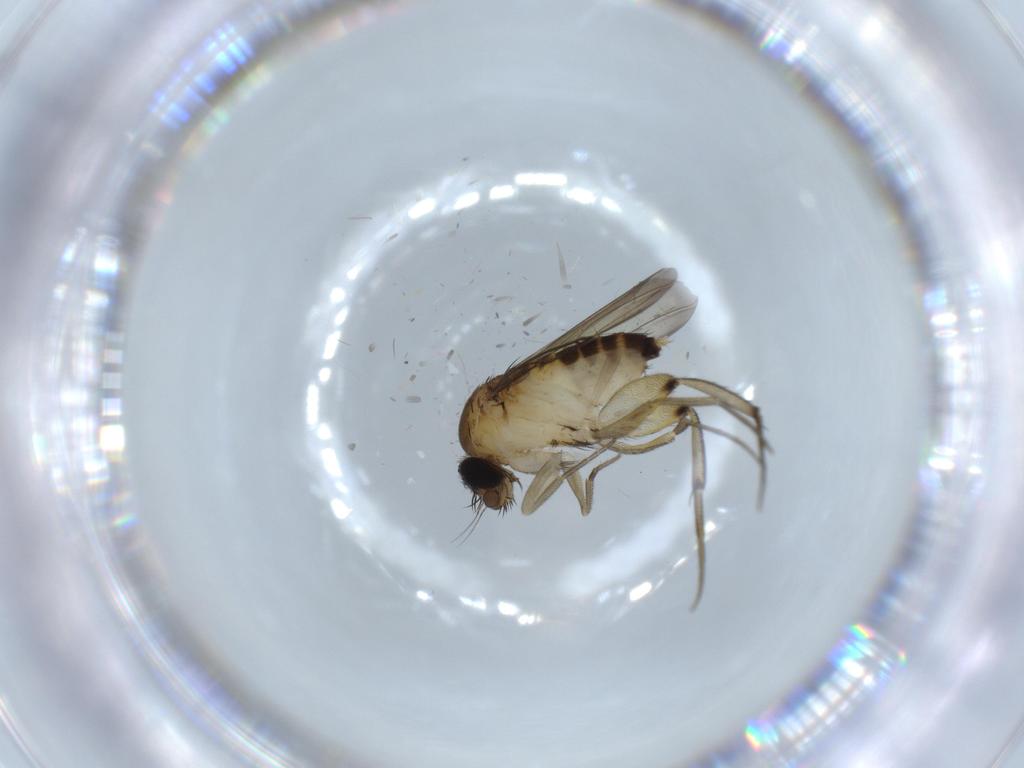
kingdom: Animalia
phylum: Arthropoda
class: Insecta
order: Diptera
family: Phoridae
